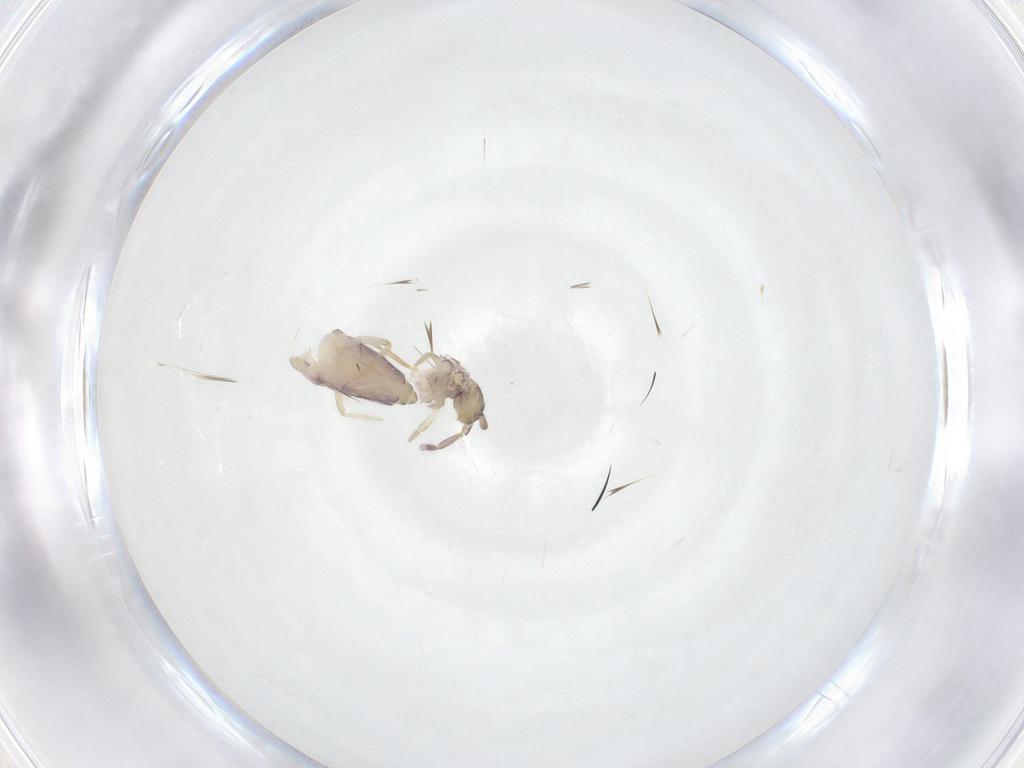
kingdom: Animalia
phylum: Arthropoda
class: Collembola
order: Entomobryomorpha
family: Entomobryidae
